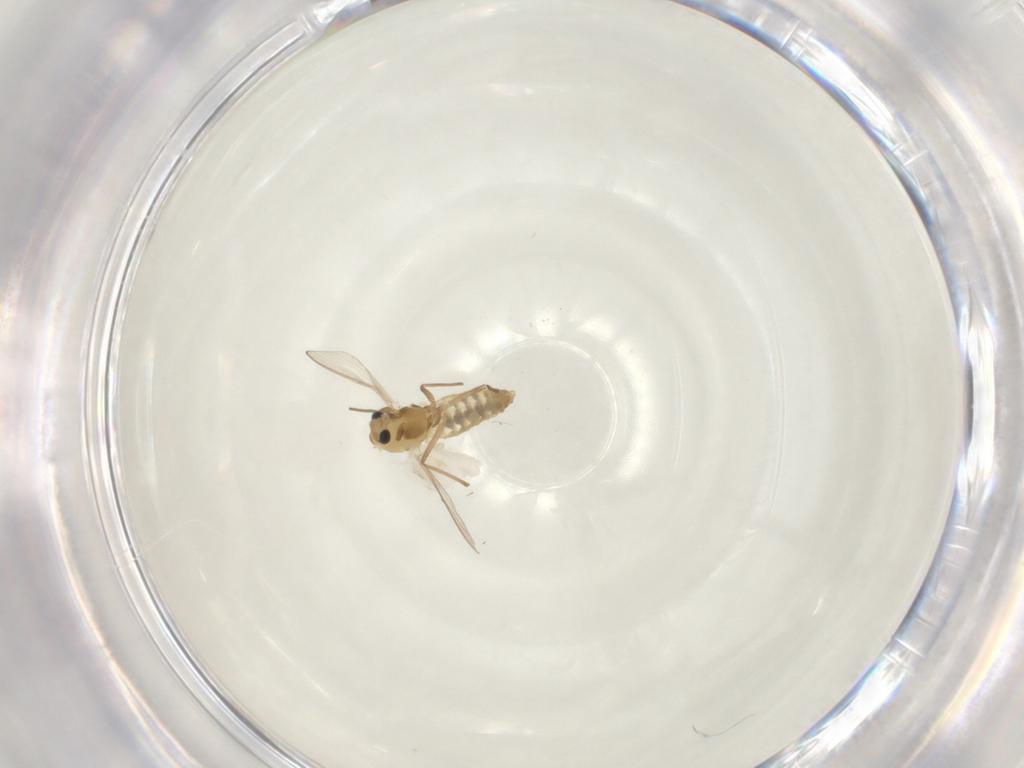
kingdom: Animalia
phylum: Arthropoda
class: Insecta
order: Diptera
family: Chironomidae
